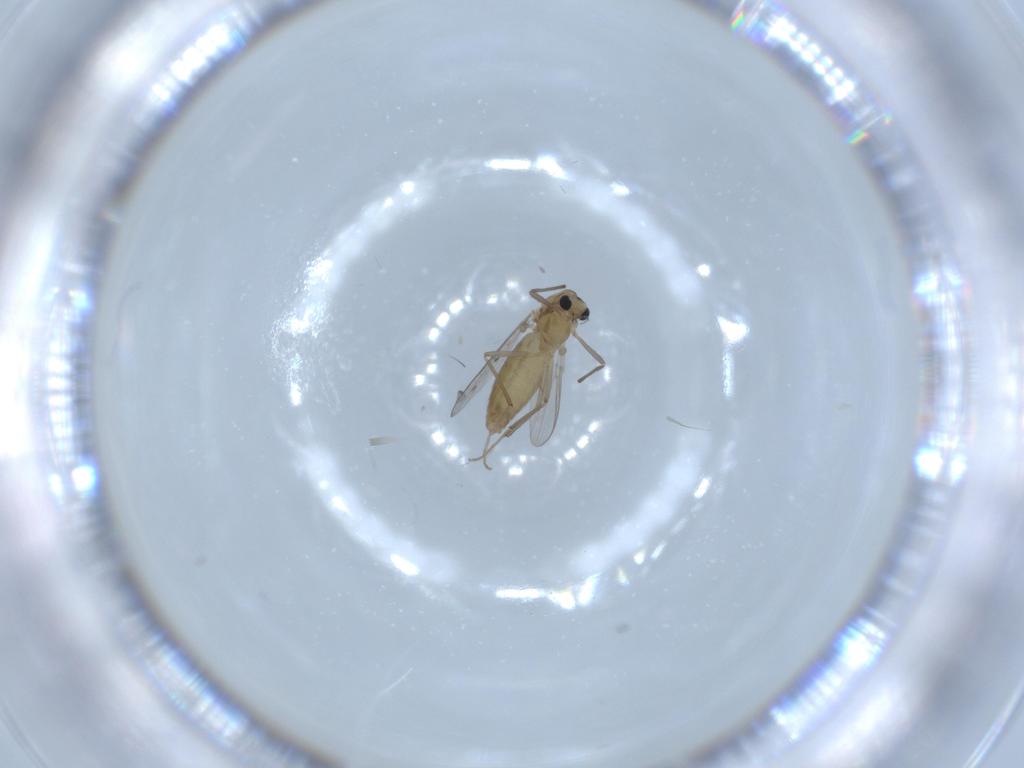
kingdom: Animalia
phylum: Arthropoda
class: Insecta
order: Diptera
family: Chironomidae
